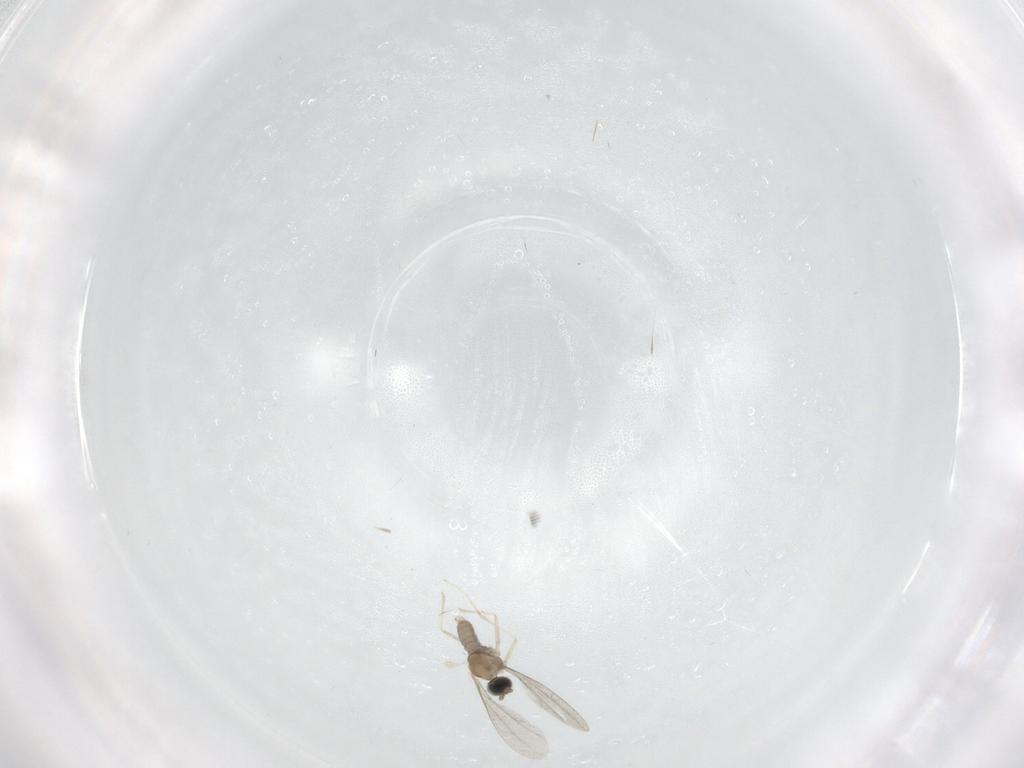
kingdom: Animalia
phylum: Arthropoda
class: Insecta
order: Diptera
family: Cecidomyiidae
